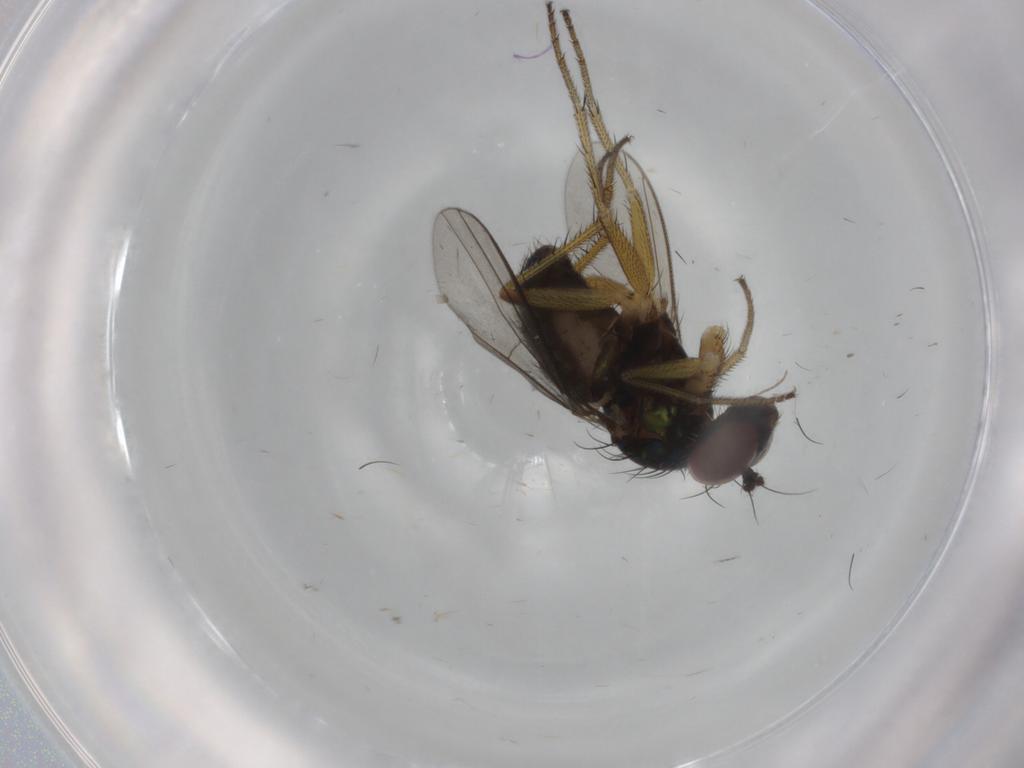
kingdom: Animalia
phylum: Arthropoda
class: Insecta
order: Diptera
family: Dolichopodidae
